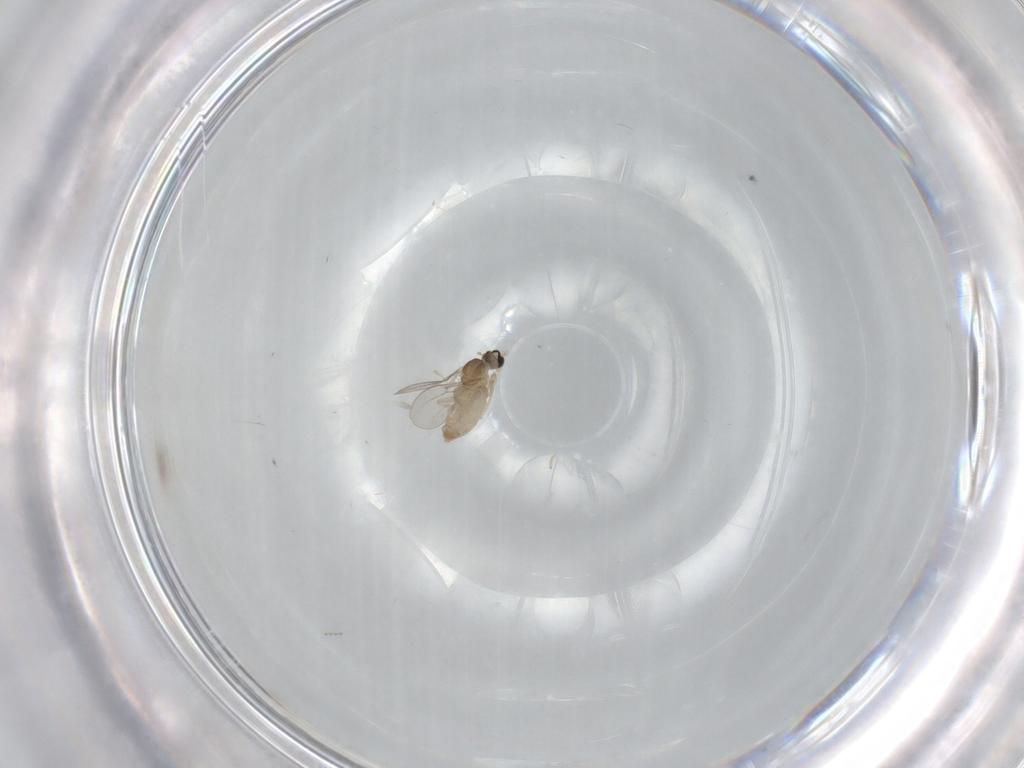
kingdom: Animalia
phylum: Arthropoda
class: Insecta
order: Diptera
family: Cecidomyiidae
